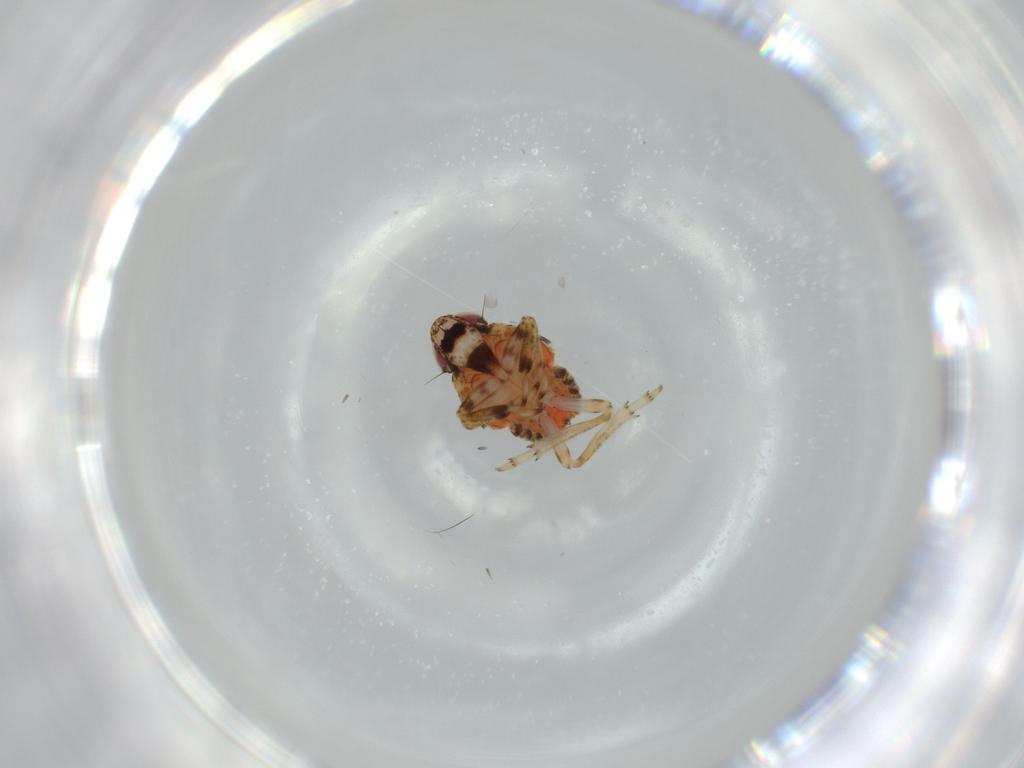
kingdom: Animalia
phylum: Arthropoda
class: Insecta
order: Hemiptera
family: Issidae
